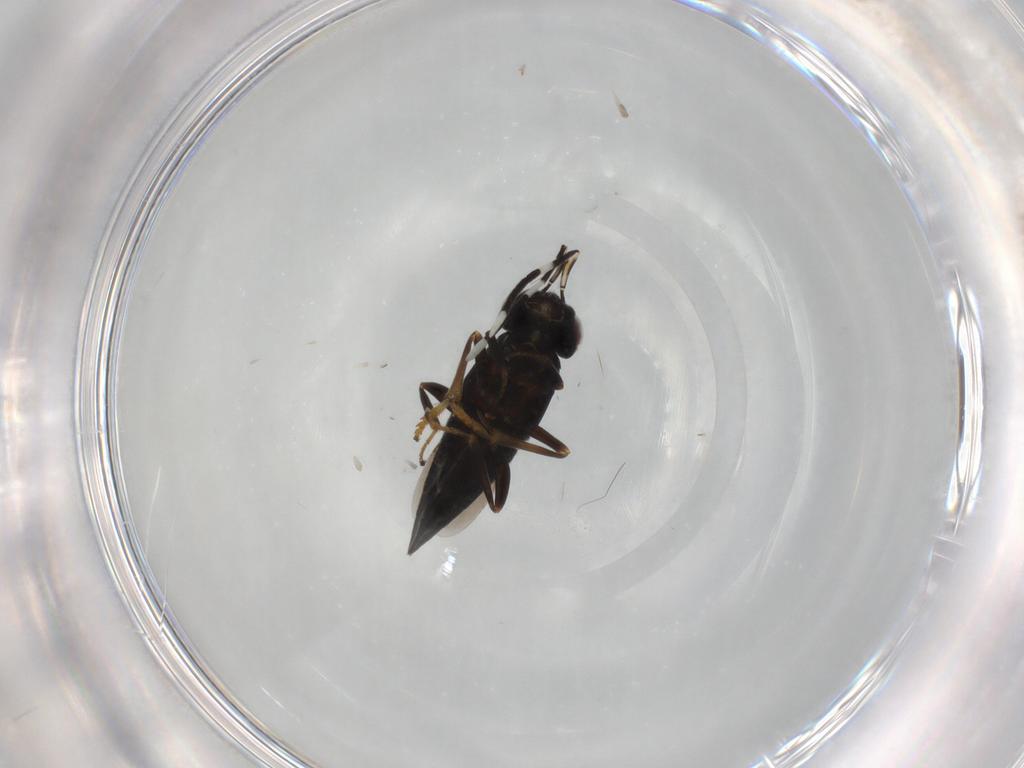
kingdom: Animalia
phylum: Arthropoda
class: Insecta
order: Hymenoptera
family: Encyrtidae
